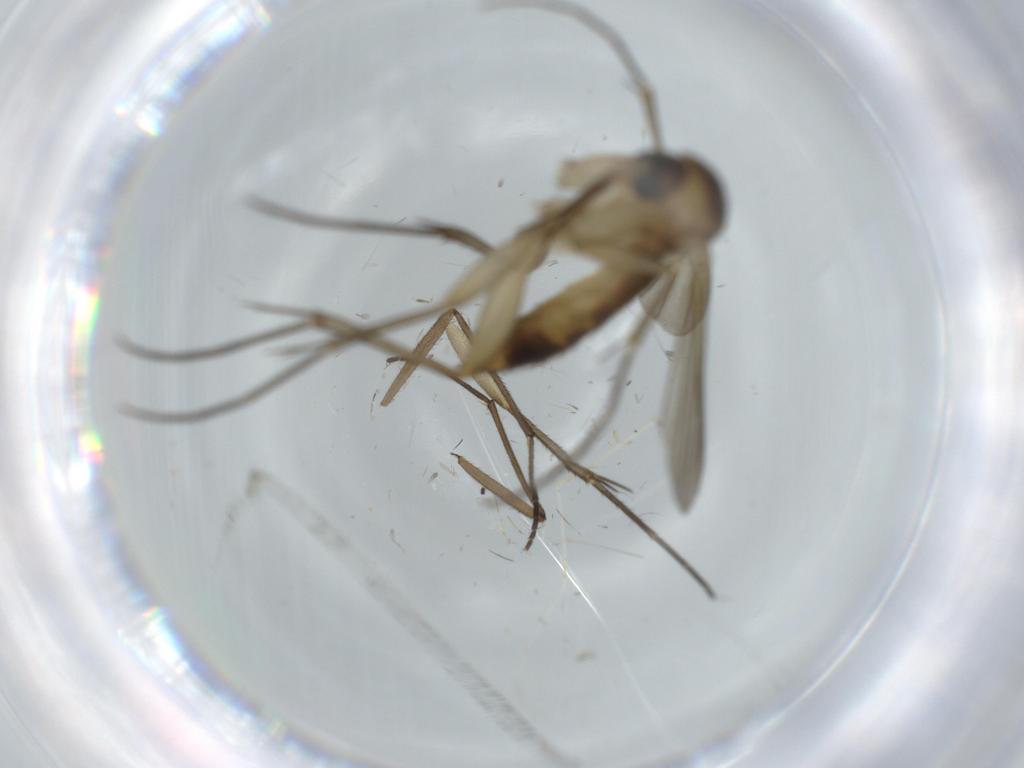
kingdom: Animalia
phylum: Arthropoda
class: Insecta
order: Diptera
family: Mycetophilidae
